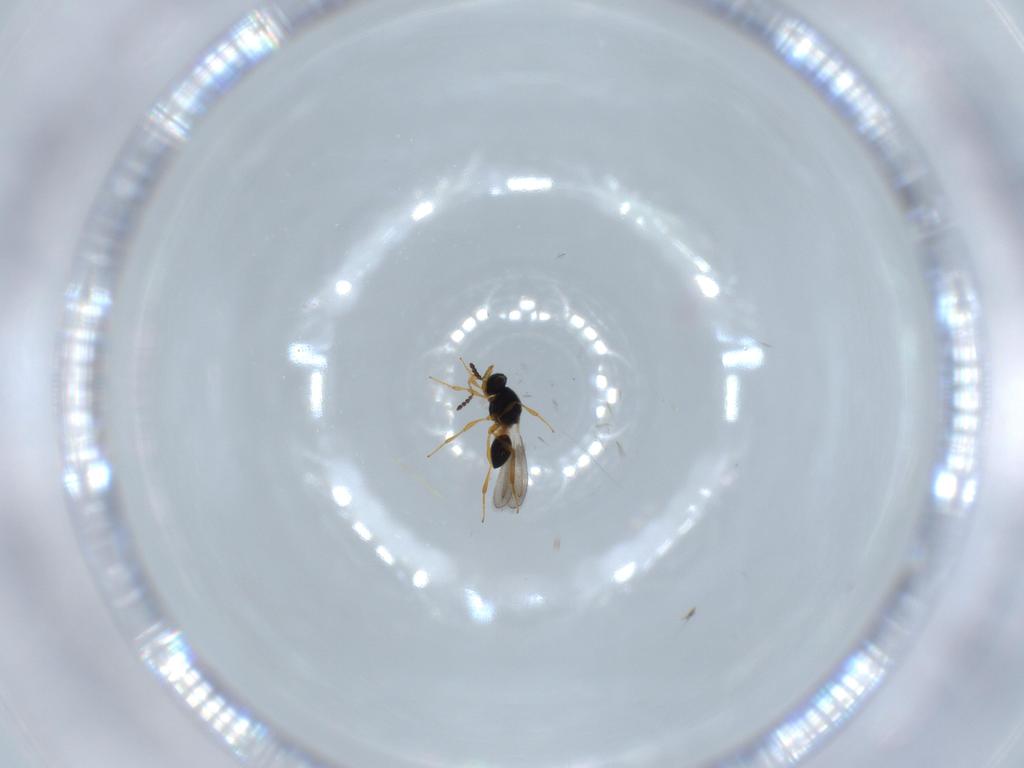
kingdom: Animalia
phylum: Arthropoda
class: Insecta
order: Hymenoptera
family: Platygastridae
